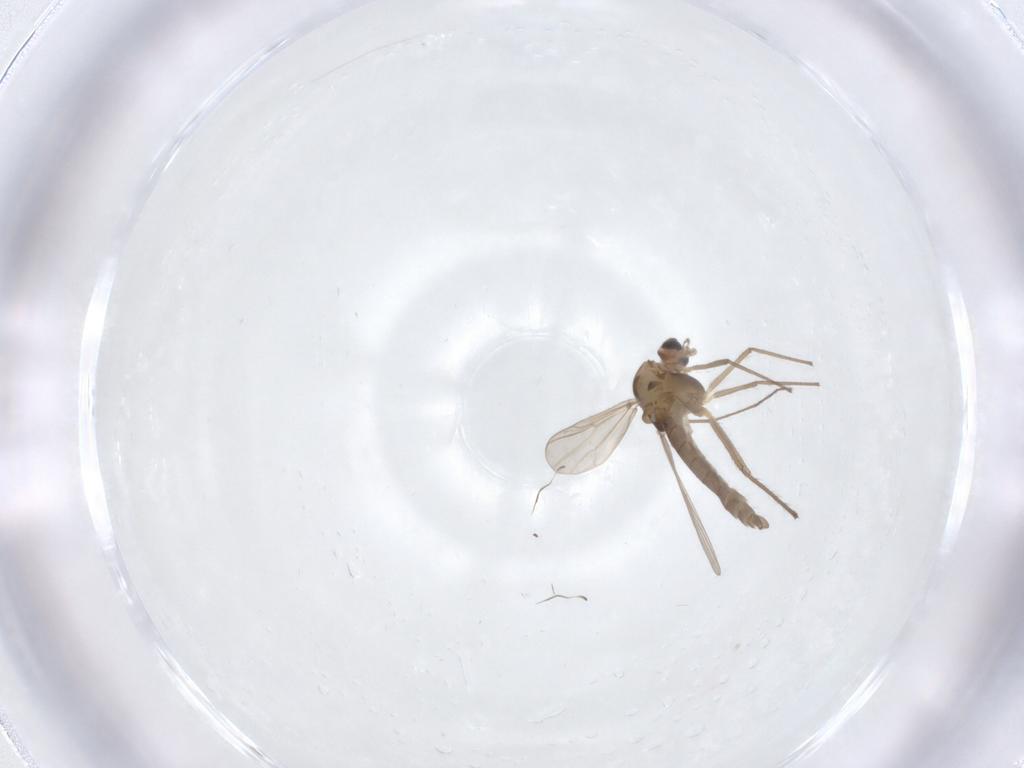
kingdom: Animalia
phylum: Arthropoda
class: Insecta
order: Diptera
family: Chironomidae
